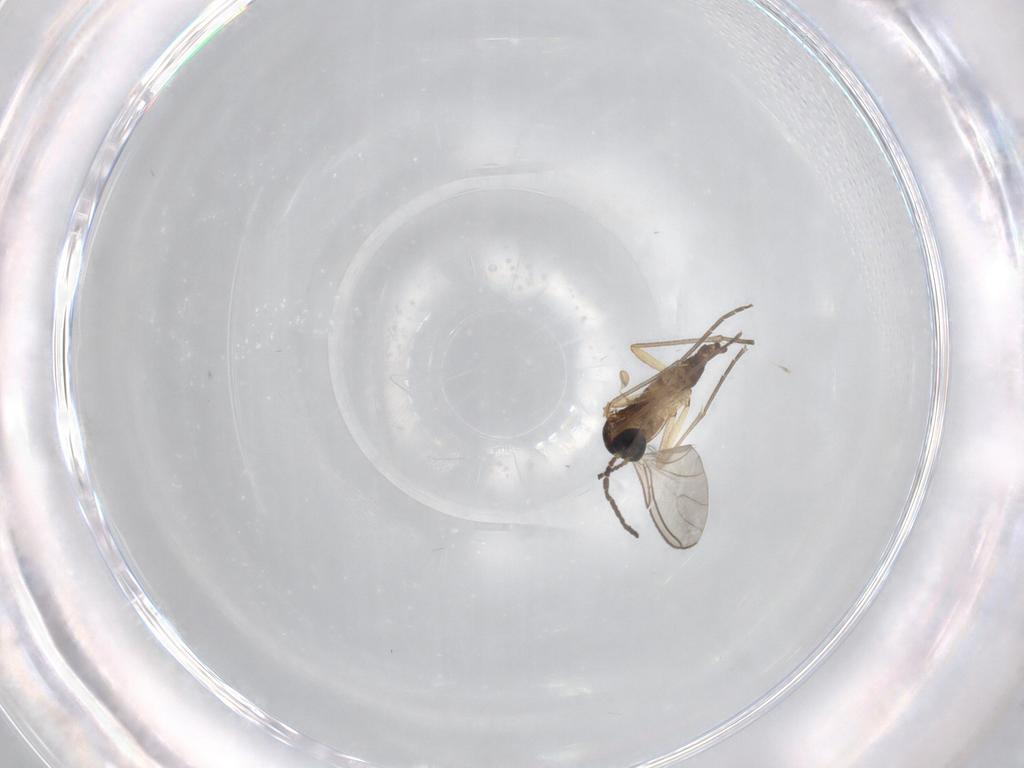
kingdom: Animalia
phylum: Arthropoda
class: Insecta
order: Diptera
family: Sciaridae
